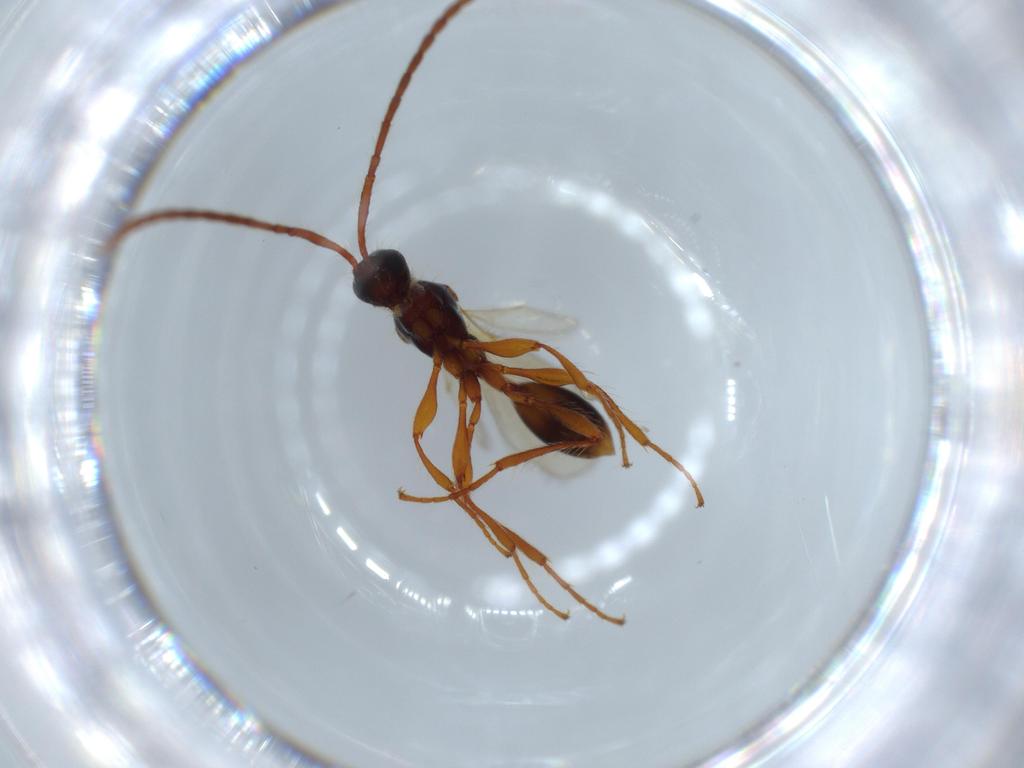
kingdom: Animalia
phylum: Arthropoda
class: Insecta
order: Hymenoptera
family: Diapriidae
